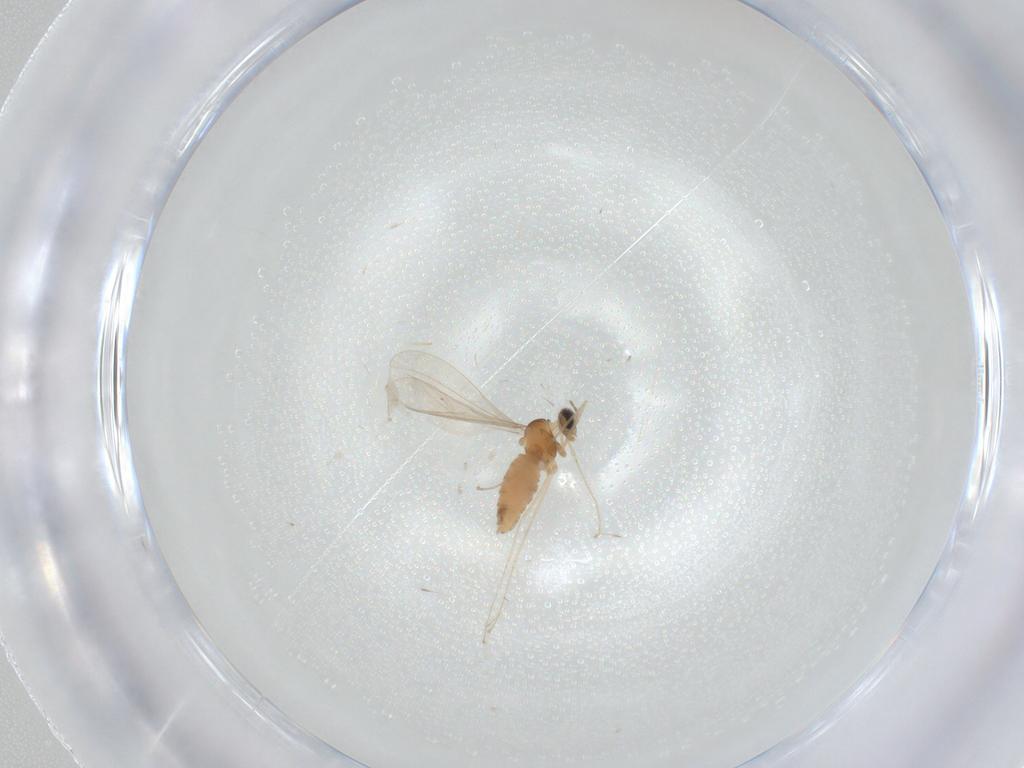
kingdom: Animalia
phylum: Arthropoda
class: Insecta
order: Diptera
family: Cecidomyiidae
